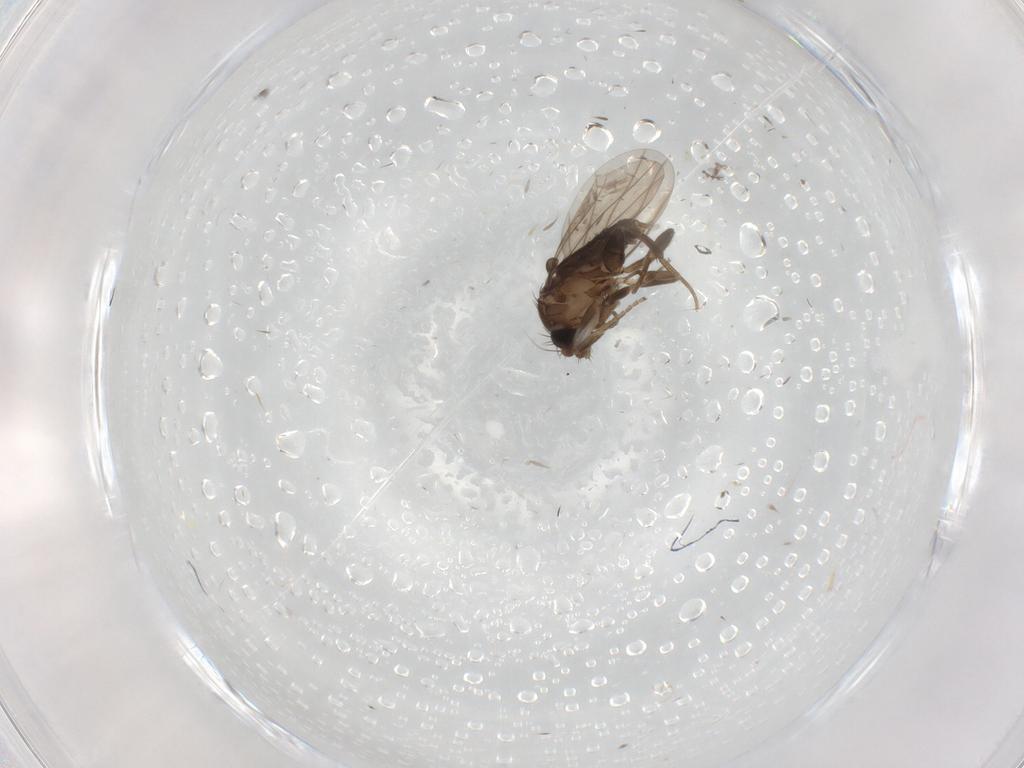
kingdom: Animalia
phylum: Arthropoda
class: Insecta
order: Diptera
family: Phoridae
